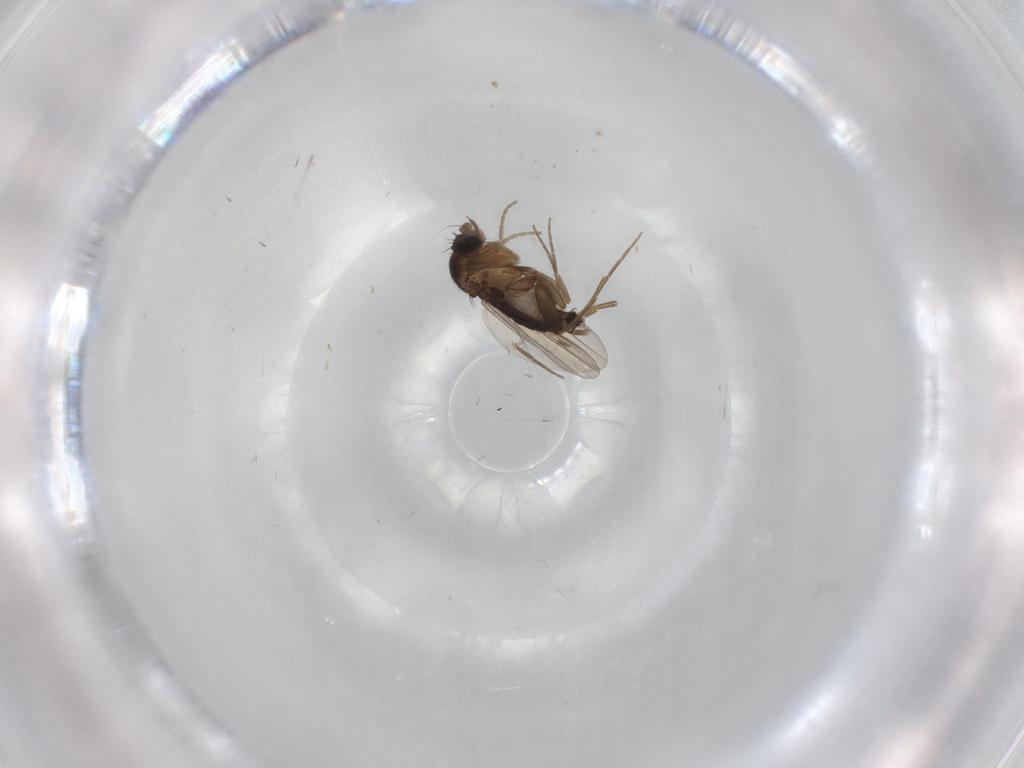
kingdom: Animalia
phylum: Arthropoda
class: Insecta
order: Diptera
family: Phoridae
